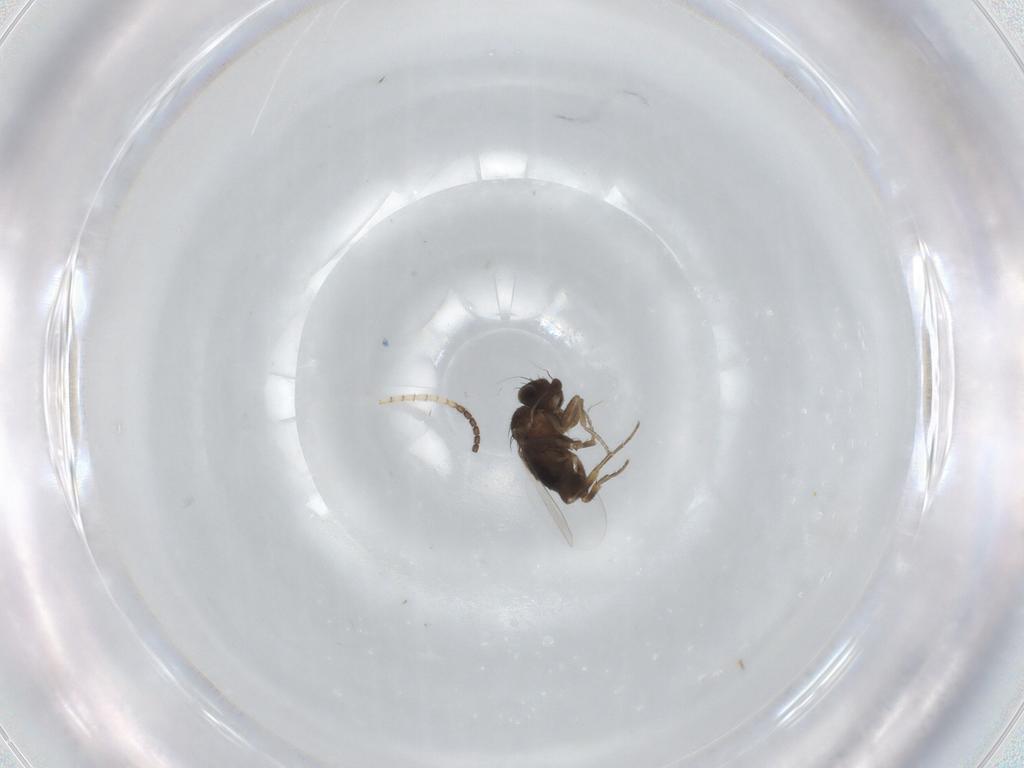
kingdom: Animalia
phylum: Arthropoda
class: Insecta
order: Diptera
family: Phoridae
